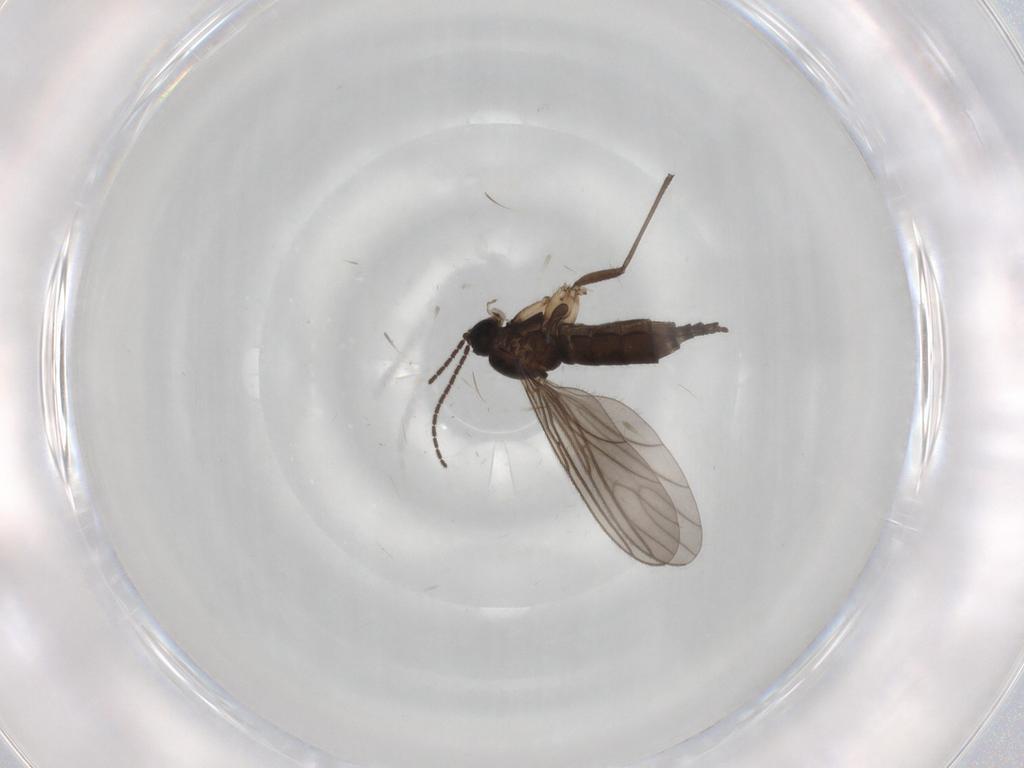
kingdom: Animalia
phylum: Arthropoda
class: Insecta
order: Diptera
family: Sciaridae
